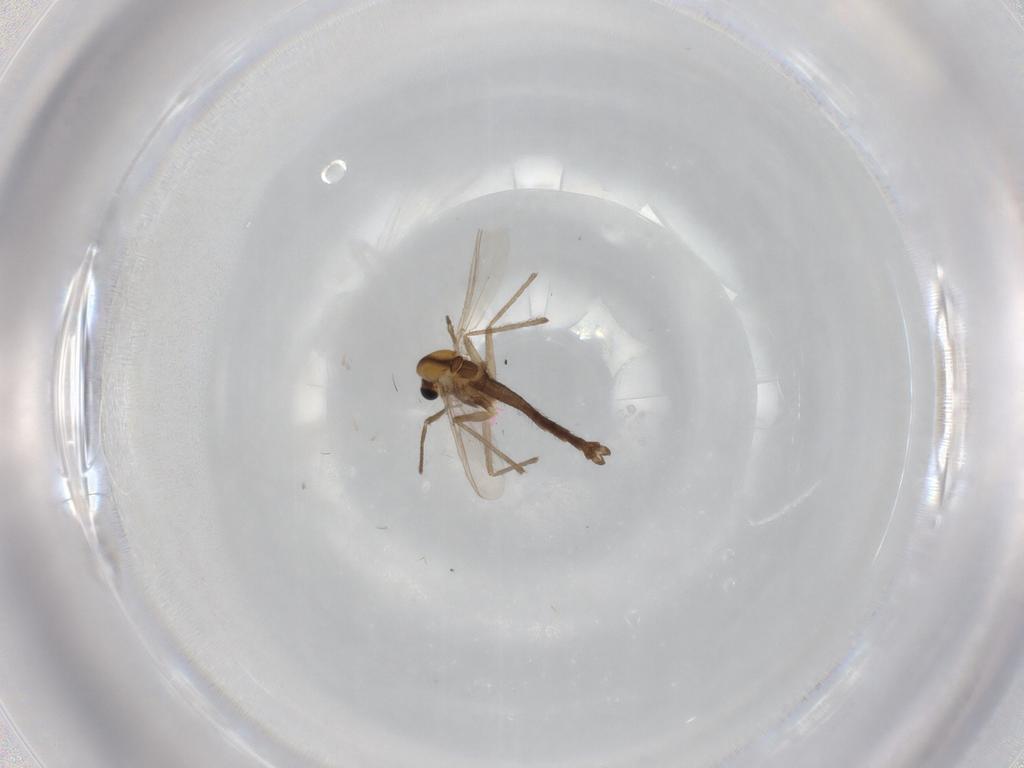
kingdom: Animalia
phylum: Arthropoda
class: Insecta
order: Diptera
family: Chironomidae
